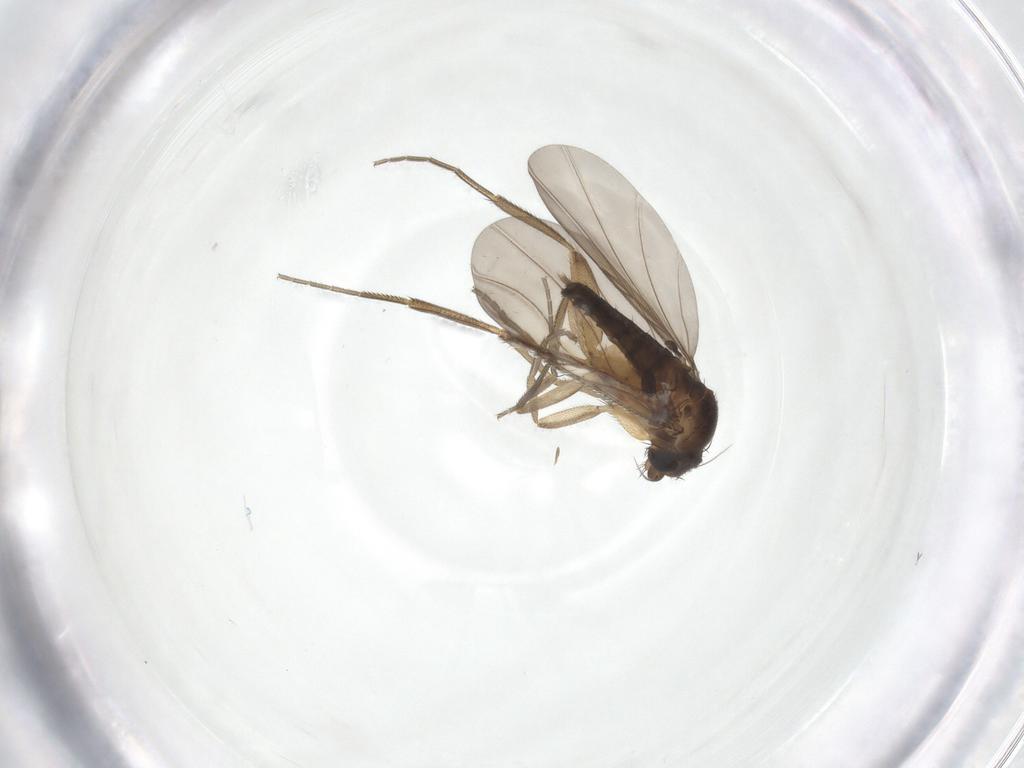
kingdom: Animalia
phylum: Arthropoda
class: Insecta
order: Diptera
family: Phoridae
